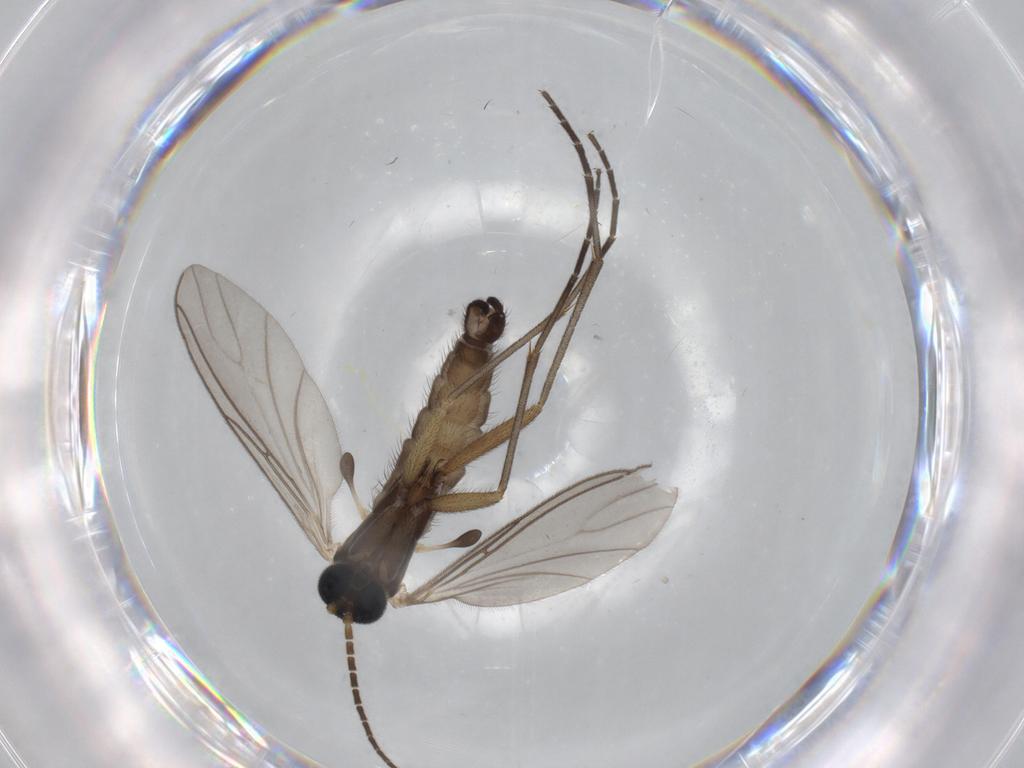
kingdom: Animalia
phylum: Arthropoda
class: Insecta
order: Diptera
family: Sciaridae
